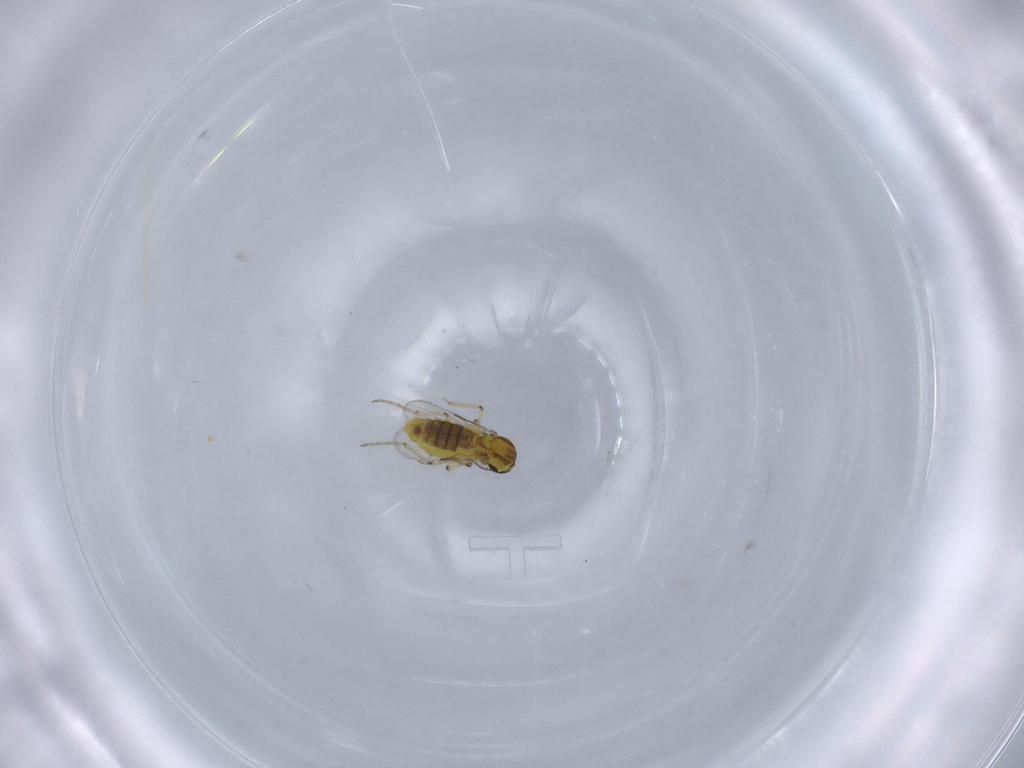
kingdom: Animalia
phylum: Arthropoda
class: Insecta
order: Diptera
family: Ceratopogonidae
